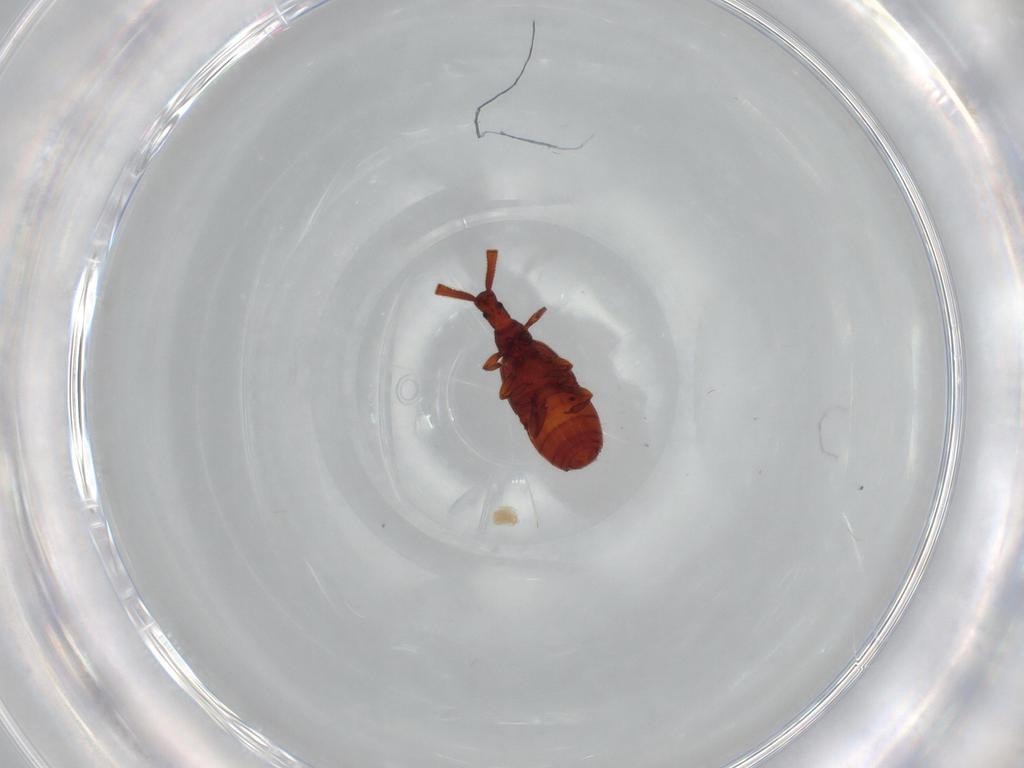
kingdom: Animalia
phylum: Arthropoda
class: Insecta
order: Coleoptera
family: Staphylinidae
